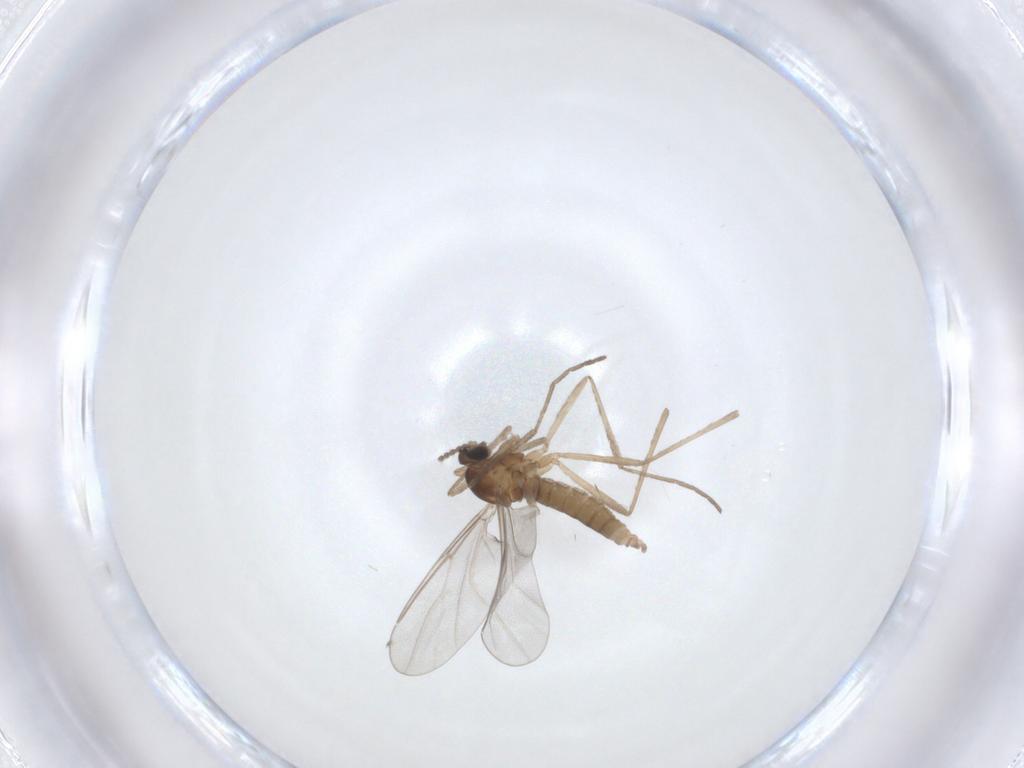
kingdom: Animalia
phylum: Arthropoda
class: Insecta
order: Diptera
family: Cecidomyiidae
